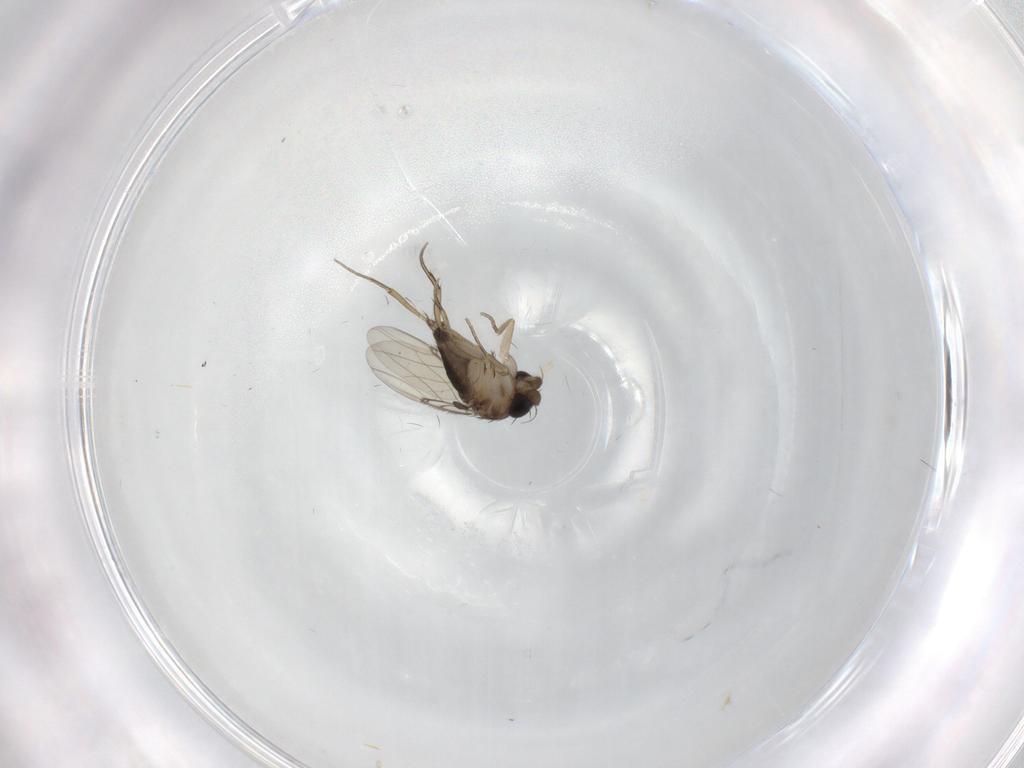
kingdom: Animalia
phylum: Arthropoda
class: Insecta
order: Diptera
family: Phoridae
